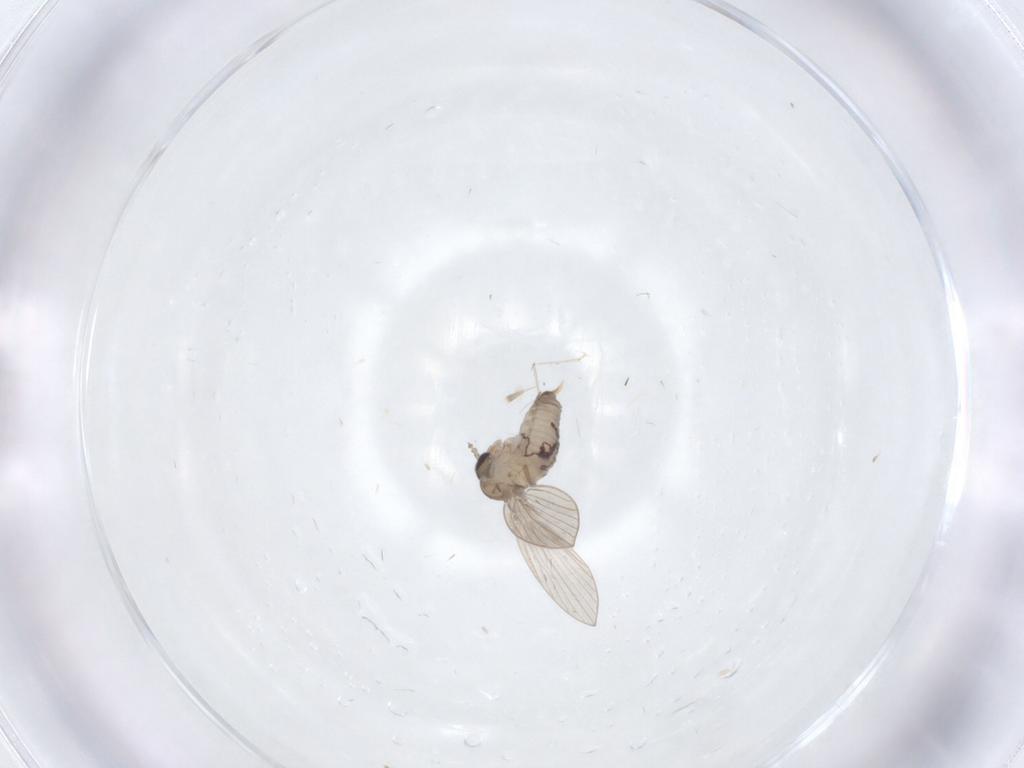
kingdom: Animalia
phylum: Arthropoda
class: Insecta
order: Diptera
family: Psychodidae
